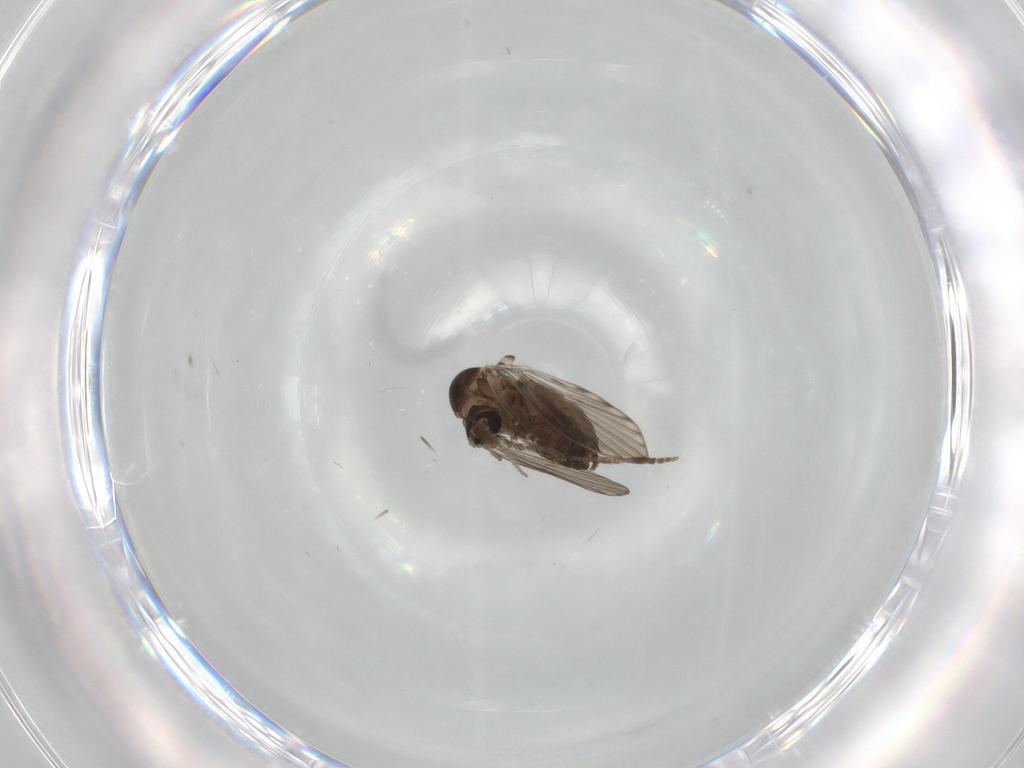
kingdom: Animalia
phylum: Arthropoda
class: Insecta
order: Diptera
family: Psychodidae
